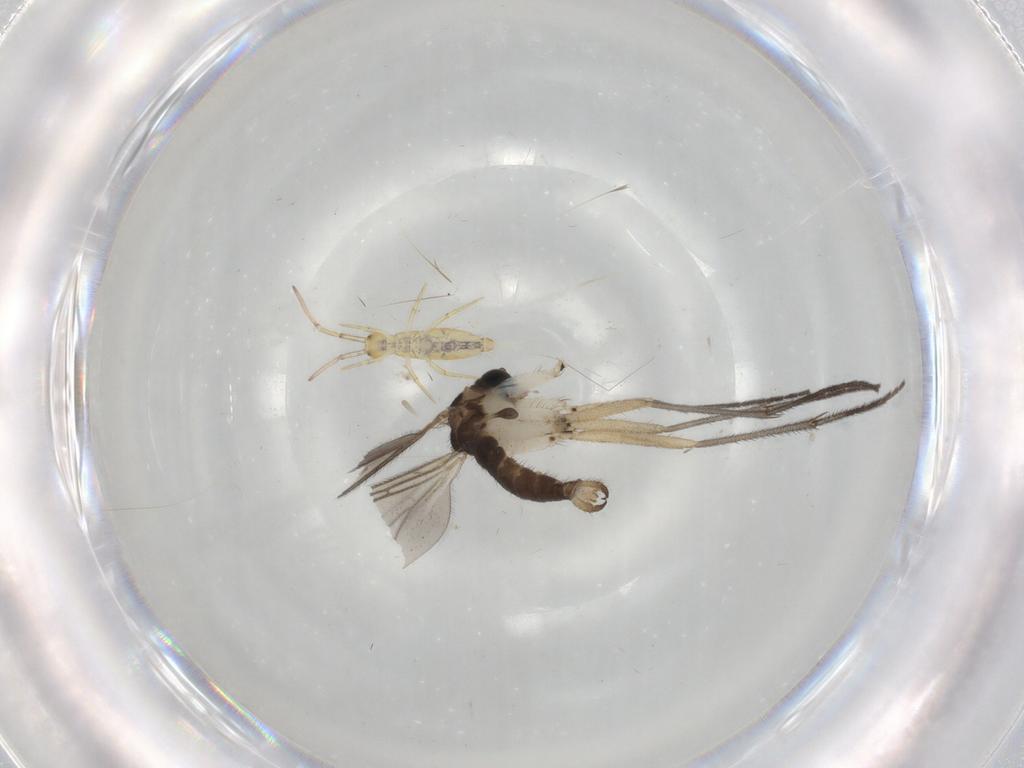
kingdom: Animalia
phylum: Arthropoda
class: Insecta
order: Diptera
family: Sciaridae
